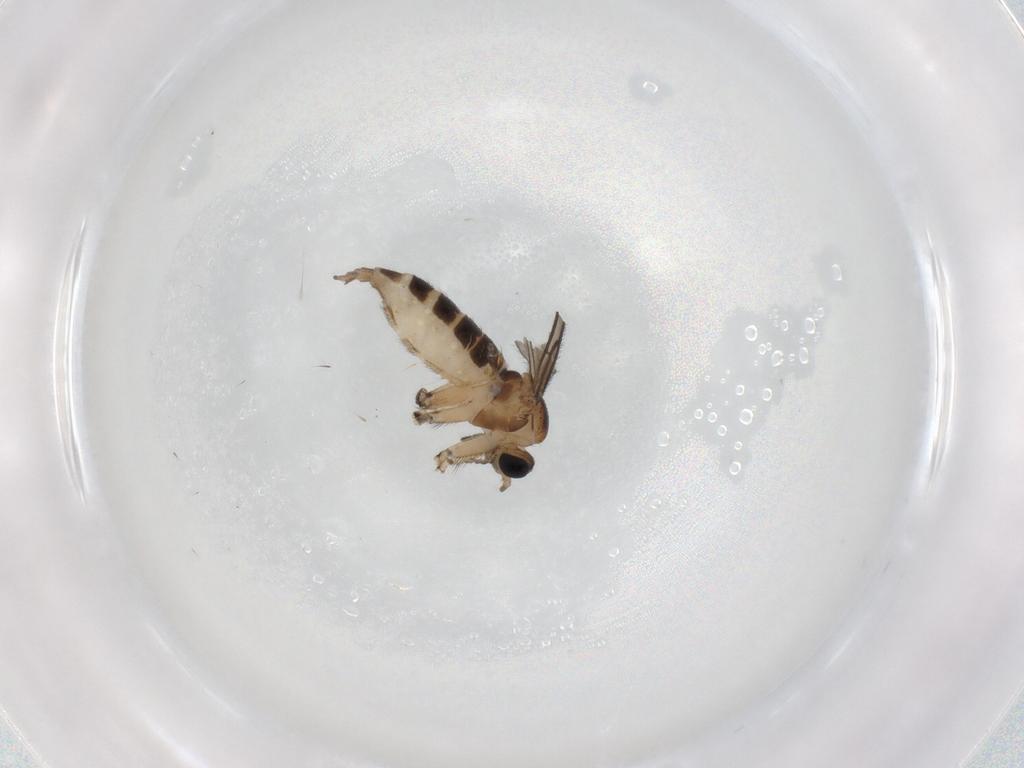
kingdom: Animalia
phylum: Arthropoda
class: Insecta
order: Diptera
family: Sciaridae
